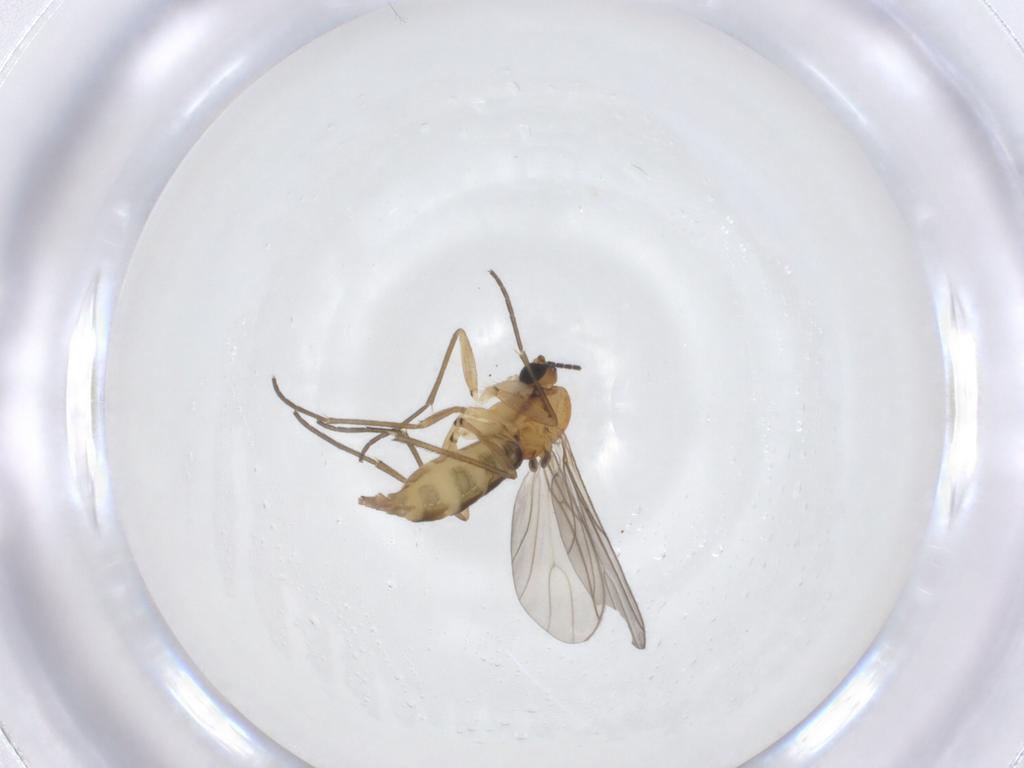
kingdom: Animalia
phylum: Arthropoda
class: Insecta
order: Diptera
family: Sciaridae
